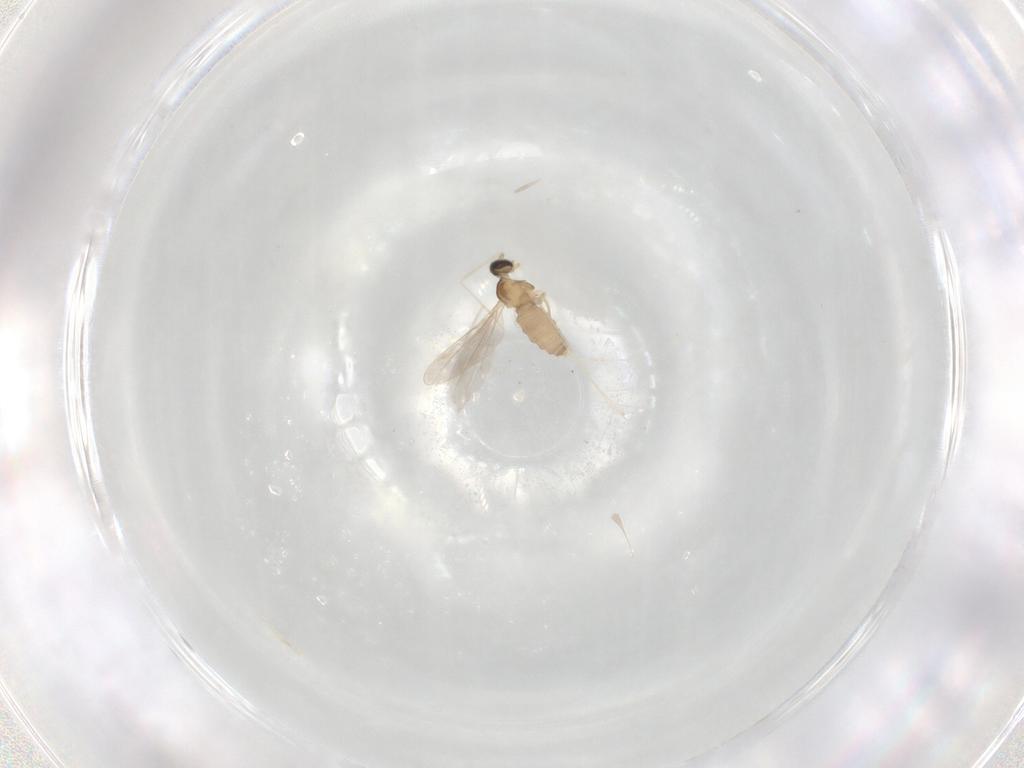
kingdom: Animalia
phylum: Arthropoda
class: Insecta
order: Diptera
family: Cecidomyiidae
